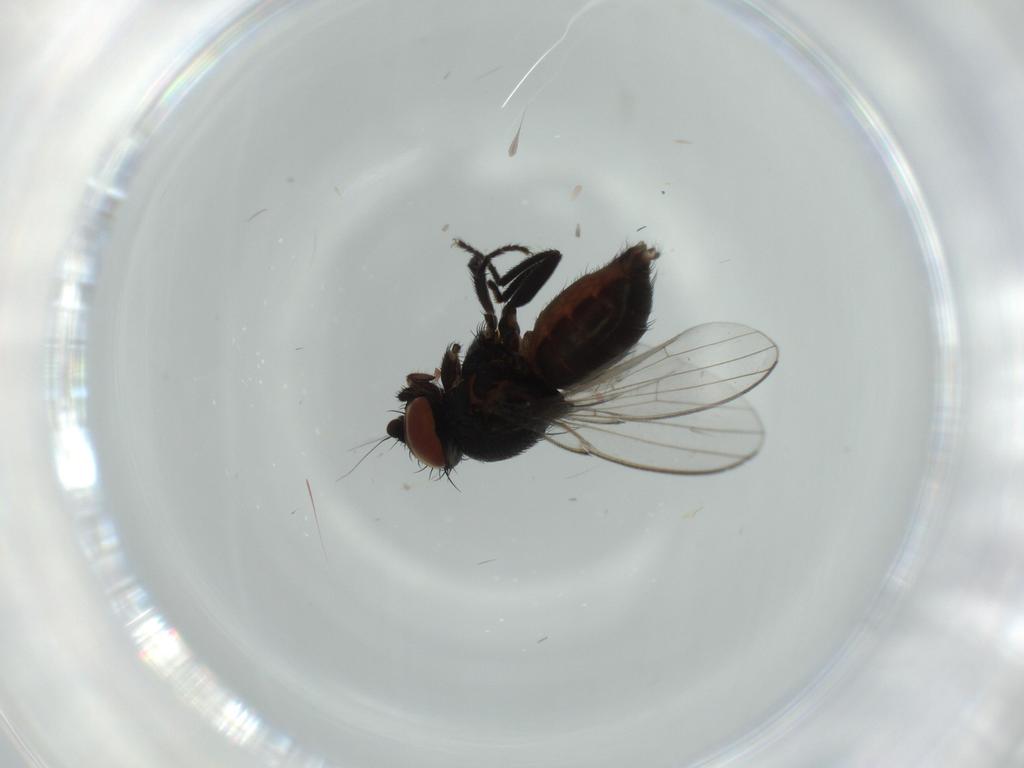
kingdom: Animalia
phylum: Arthropoda
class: Insecta
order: Diptera
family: Milichiidae
